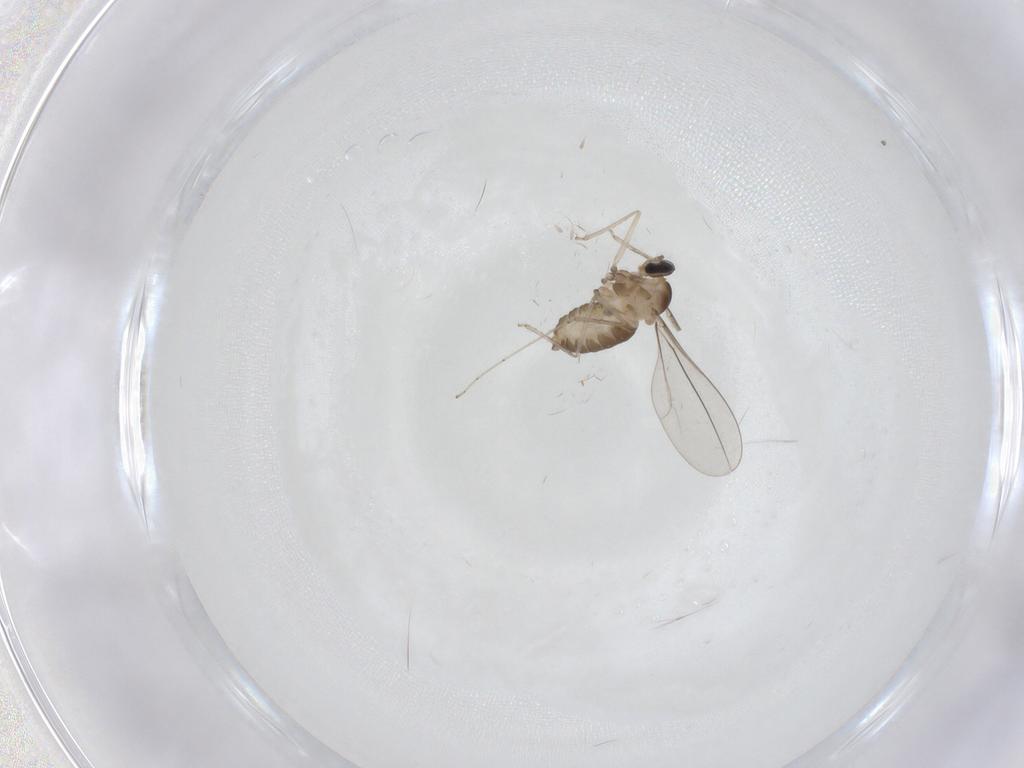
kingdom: Animalia
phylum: Arthropoda
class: Insecta
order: Diptera
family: Cecidomyiidae
